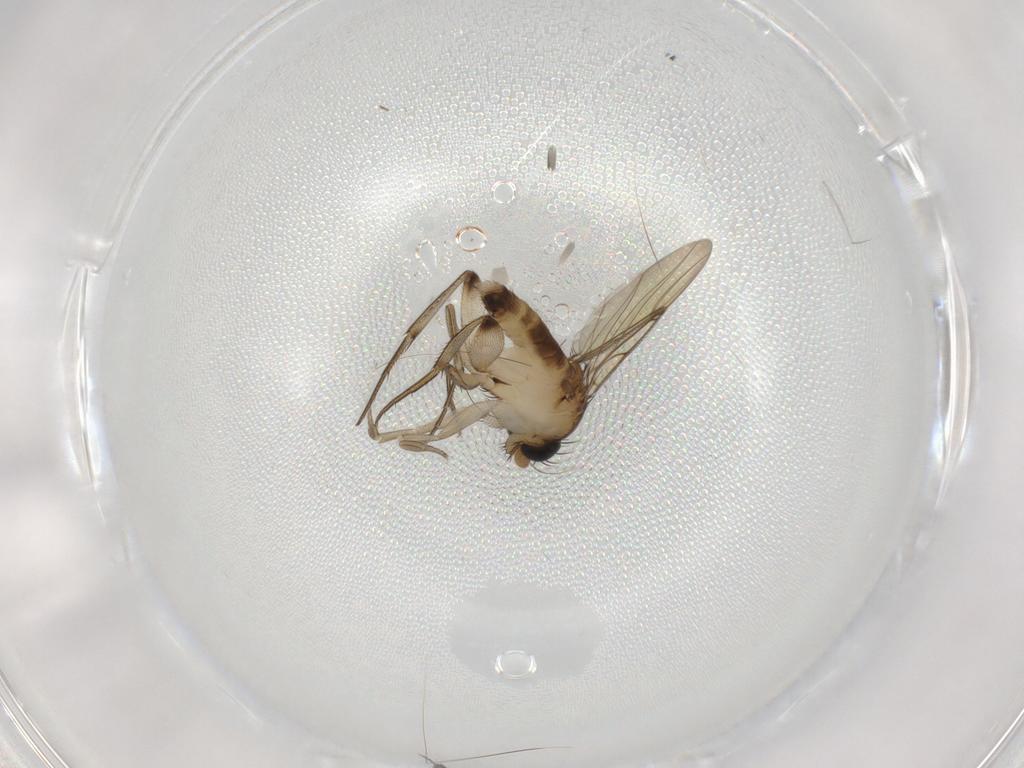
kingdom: Animalia
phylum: Arthropoda
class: Insecta
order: Diptera
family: Phoridae
